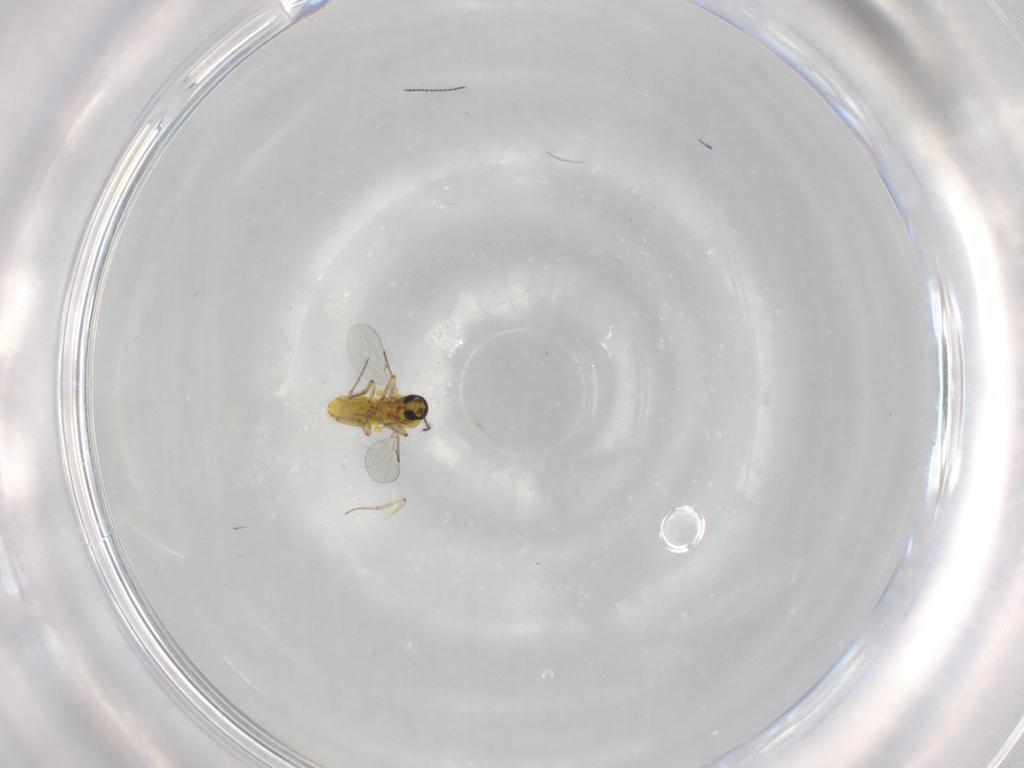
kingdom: Animalia
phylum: Arthropoda
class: Insecta
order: Diptera
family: Ceratopogonidae
